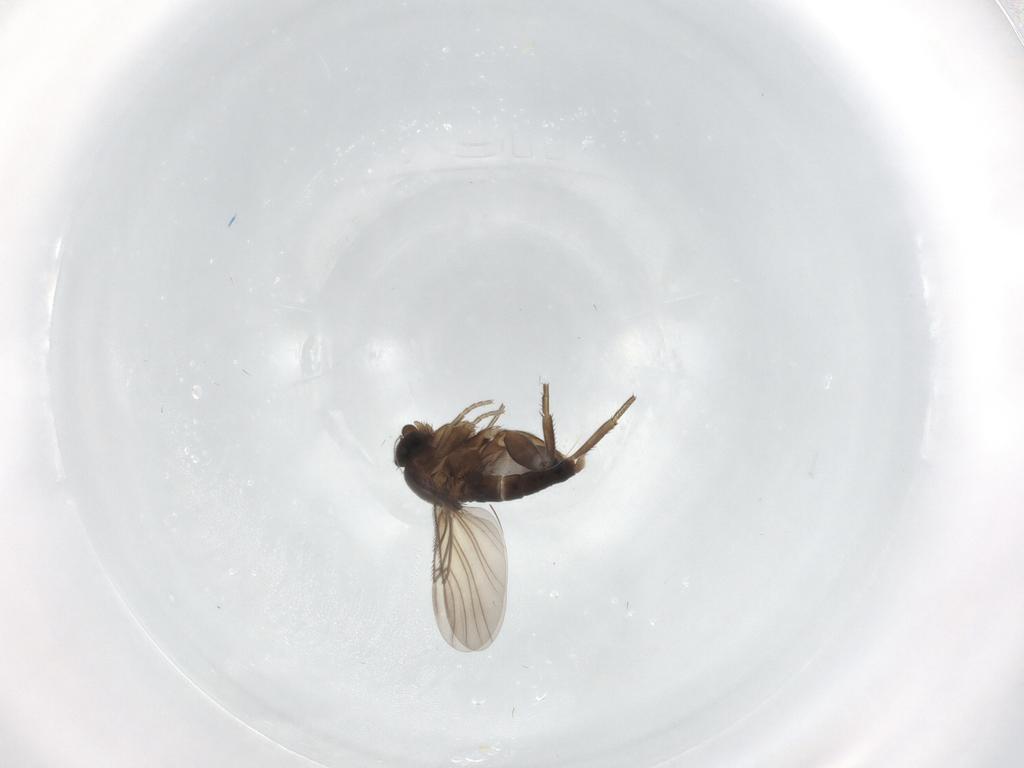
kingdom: Animalia
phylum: Arthropoda
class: Insecta
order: Diptera
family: Phoridae
